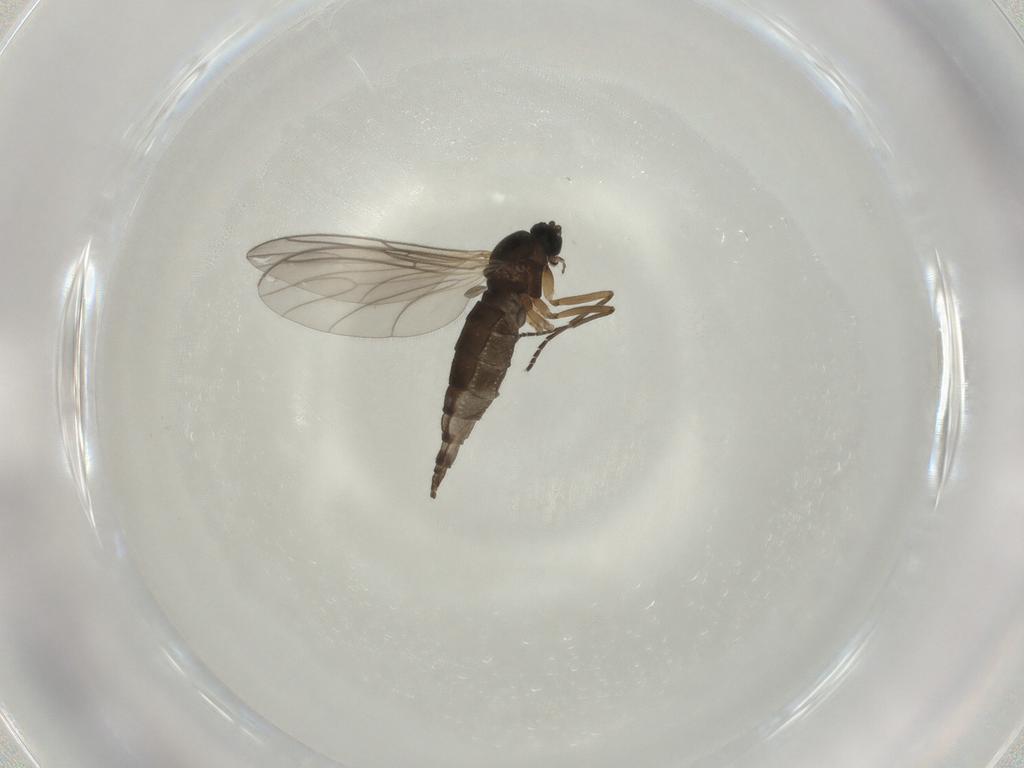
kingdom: Animalia
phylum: Arthropoda
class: Insecta
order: Diptera
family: Sciaridae
